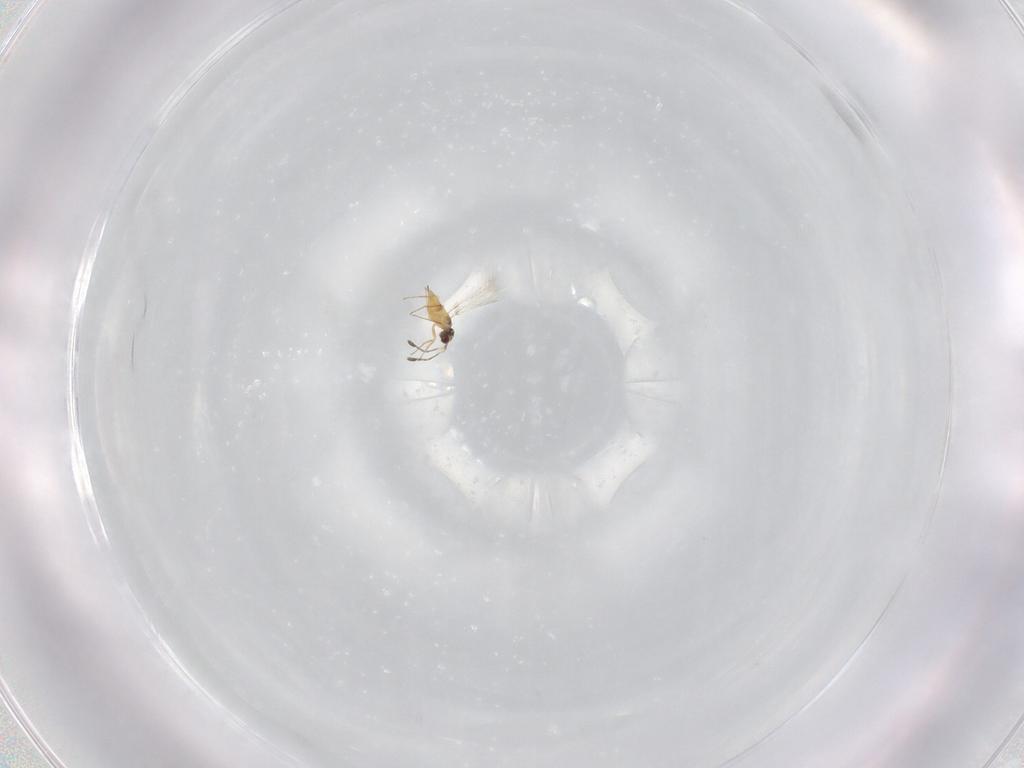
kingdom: Animalia
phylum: Arthropoda
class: Insecta
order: Hymenoptera
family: Mymaridae
